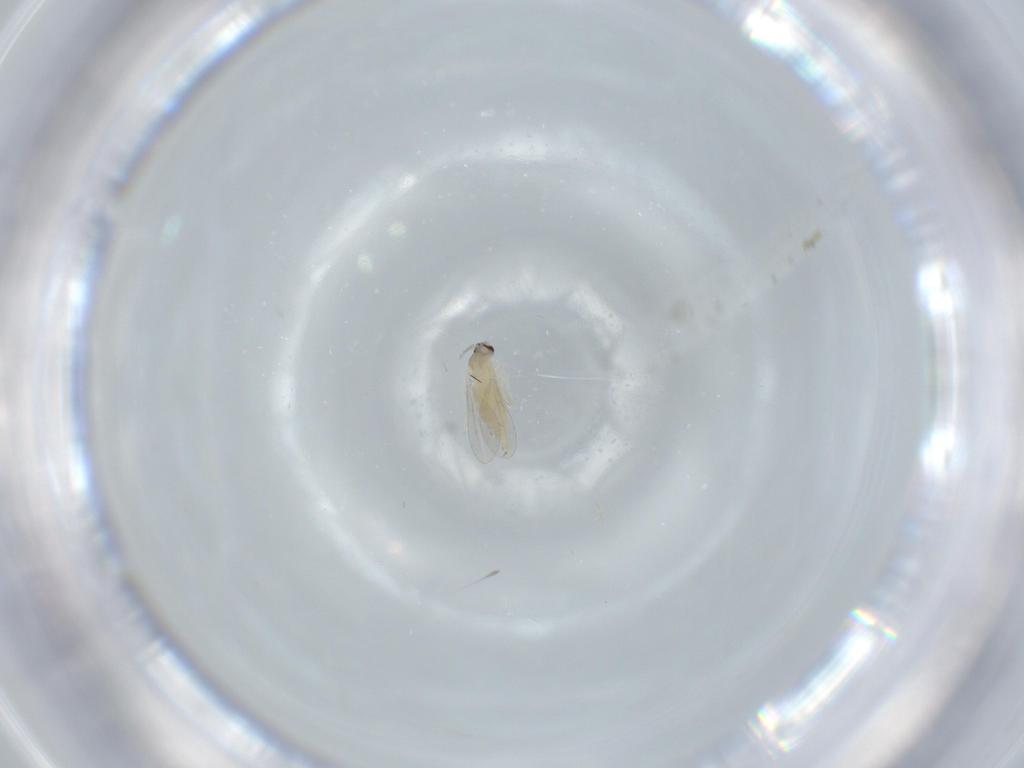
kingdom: Animalia
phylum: Arthropoda
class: Insecta
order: Diptera
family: Cecidomyiidae
